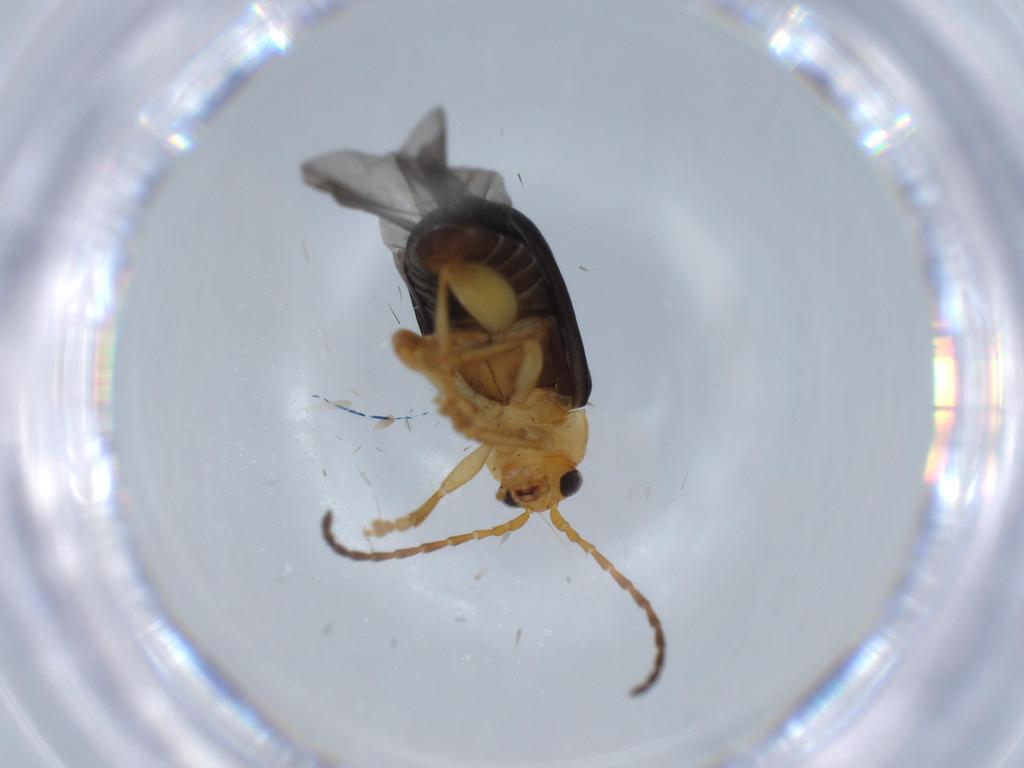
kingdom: Animalia
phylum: Arthropoda
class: Insecta
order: Coleoptera
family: Chrysomelidae
